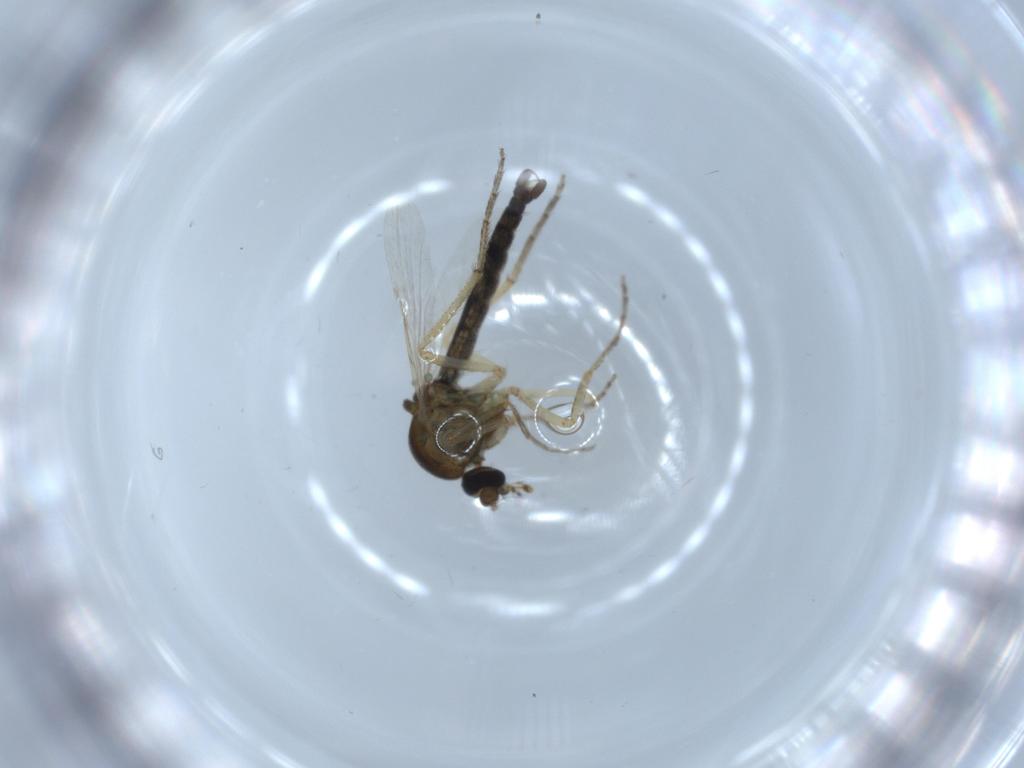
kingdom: Animalia
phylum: Arthropoda
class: Insecta
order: Diptera
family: Ceratopogonidae
